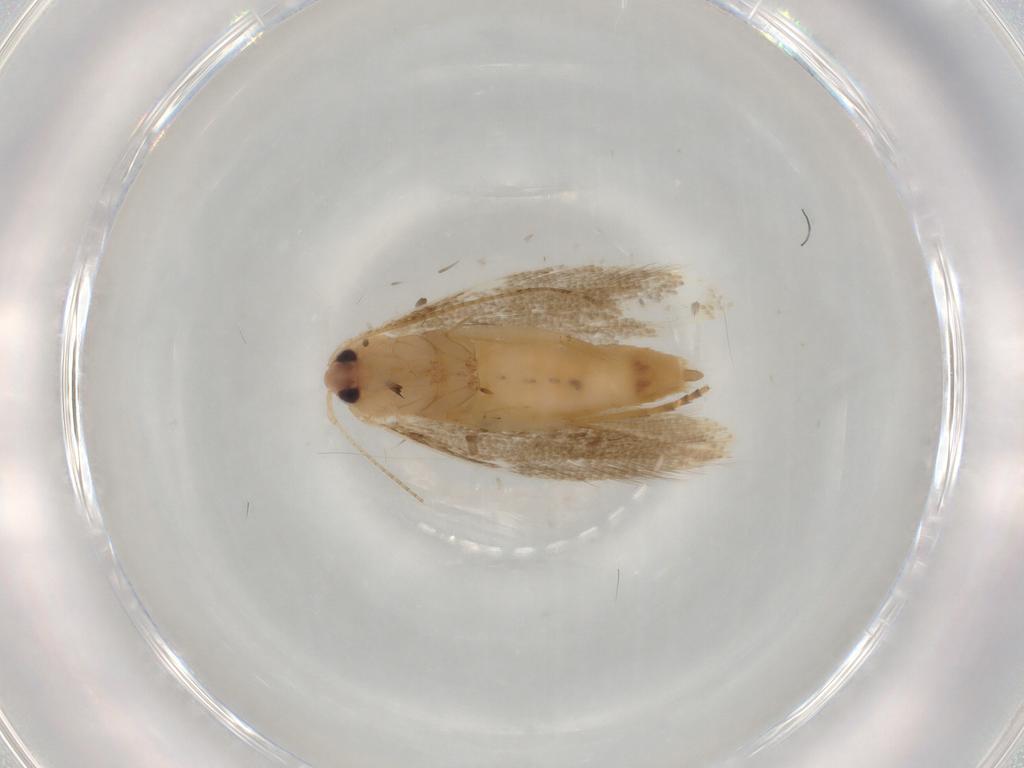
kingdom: Animalia
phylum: Arthropoda
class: Insecta
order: Lepidoptera
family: Bucculatricidae
